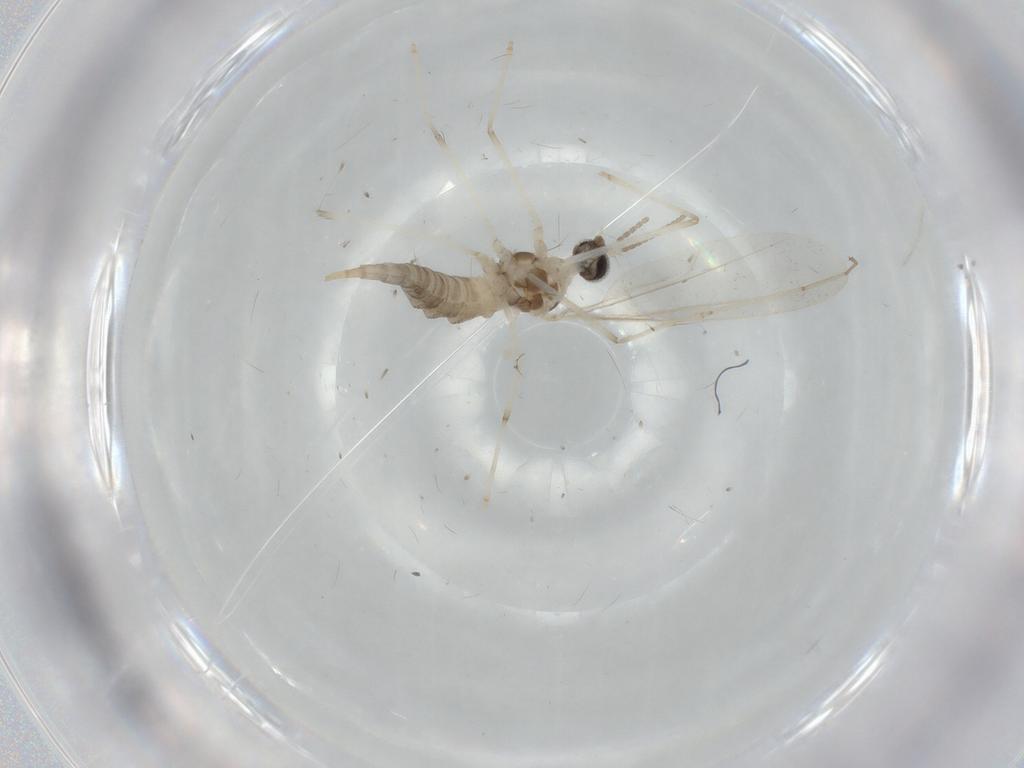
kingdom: Animalia
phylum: Arthropoda
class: Insecta
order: Diptera
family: Cecidomyiidae
